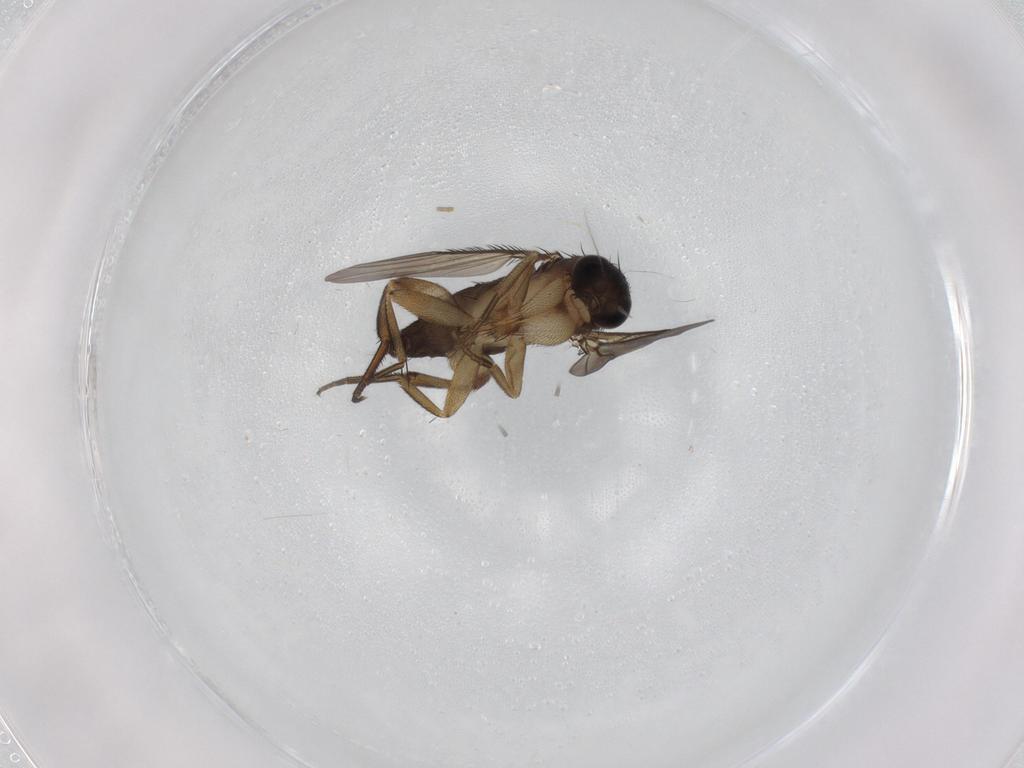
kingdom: Animalia
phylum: Arthropoda
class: Insecta
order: Diptera
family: Phoridae
